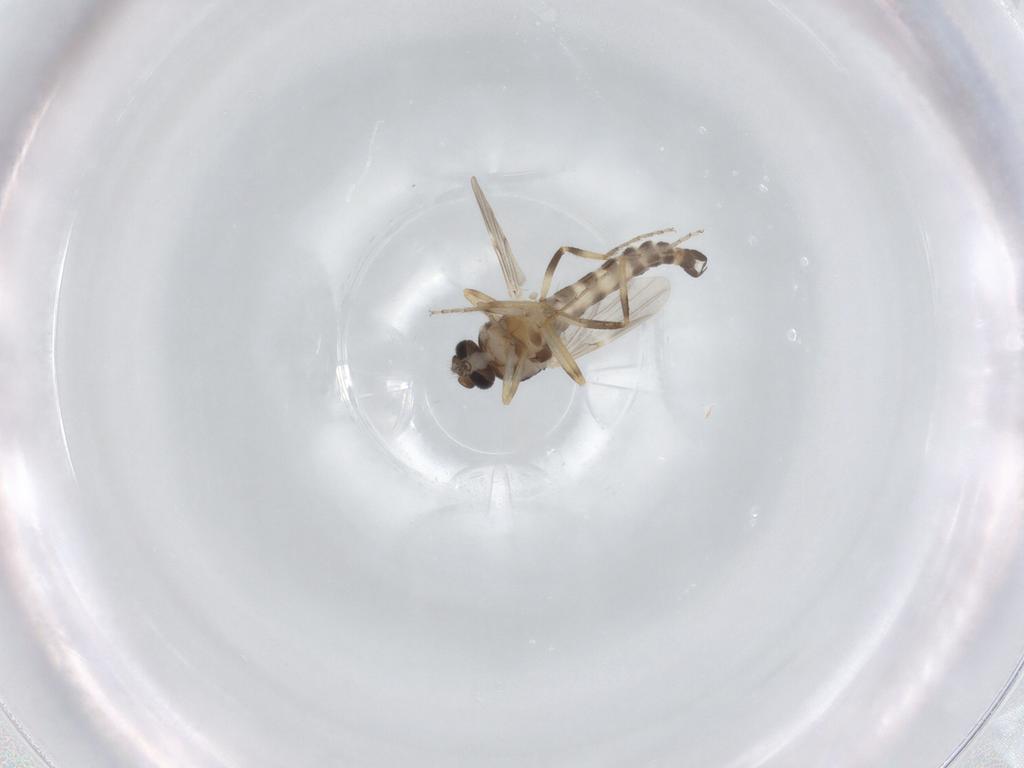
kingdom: Animalia
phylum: Arthropoda
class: Insecta
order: Diptera
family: Ceratopogonidae
